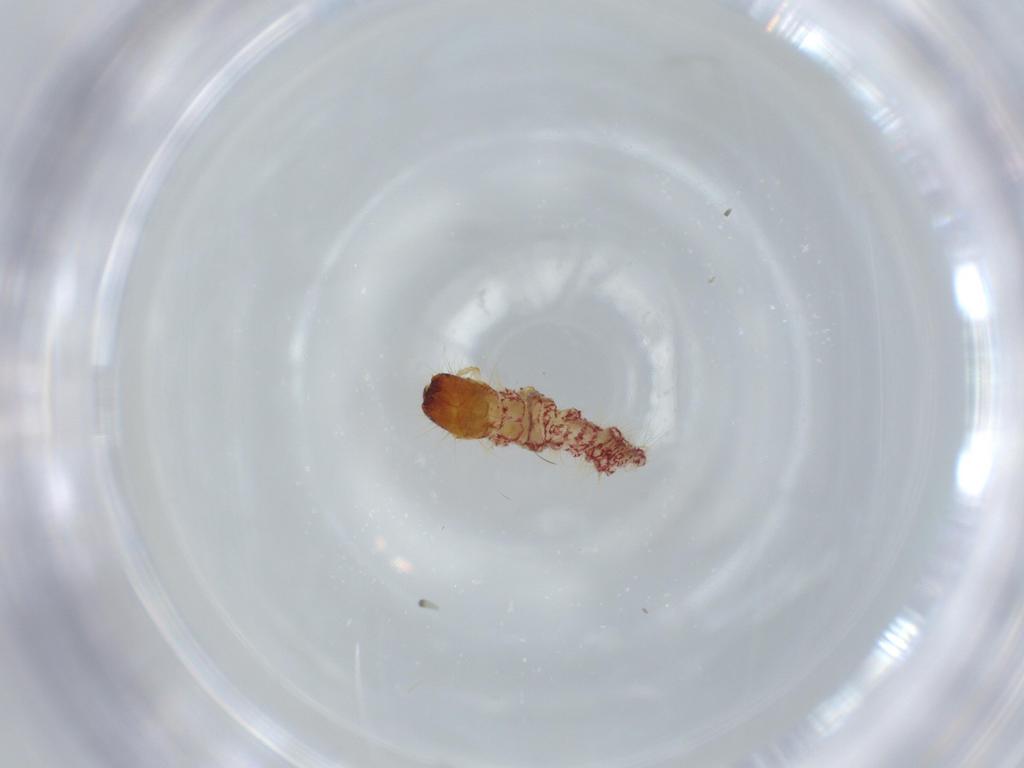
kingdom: Animalia
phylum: Arthropoda
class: Insecta
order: Coleoptera
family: Cleridae
